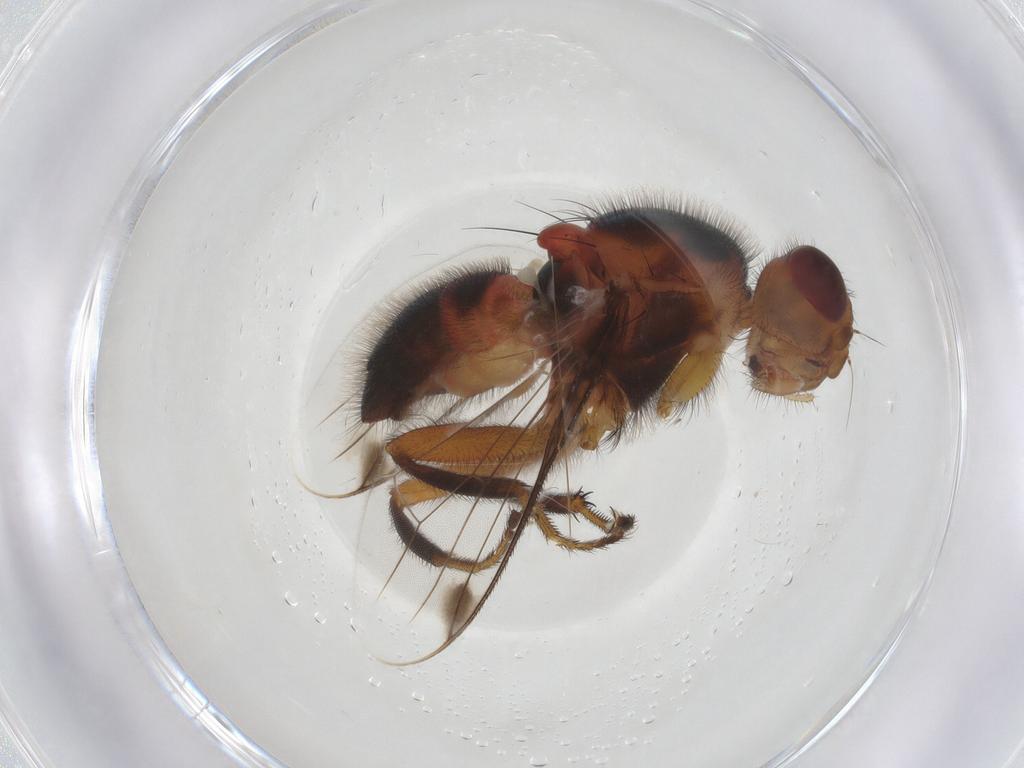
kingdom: Animalia
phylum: Arthropoda
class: Insecta
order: Diptera
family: Richardiidae
